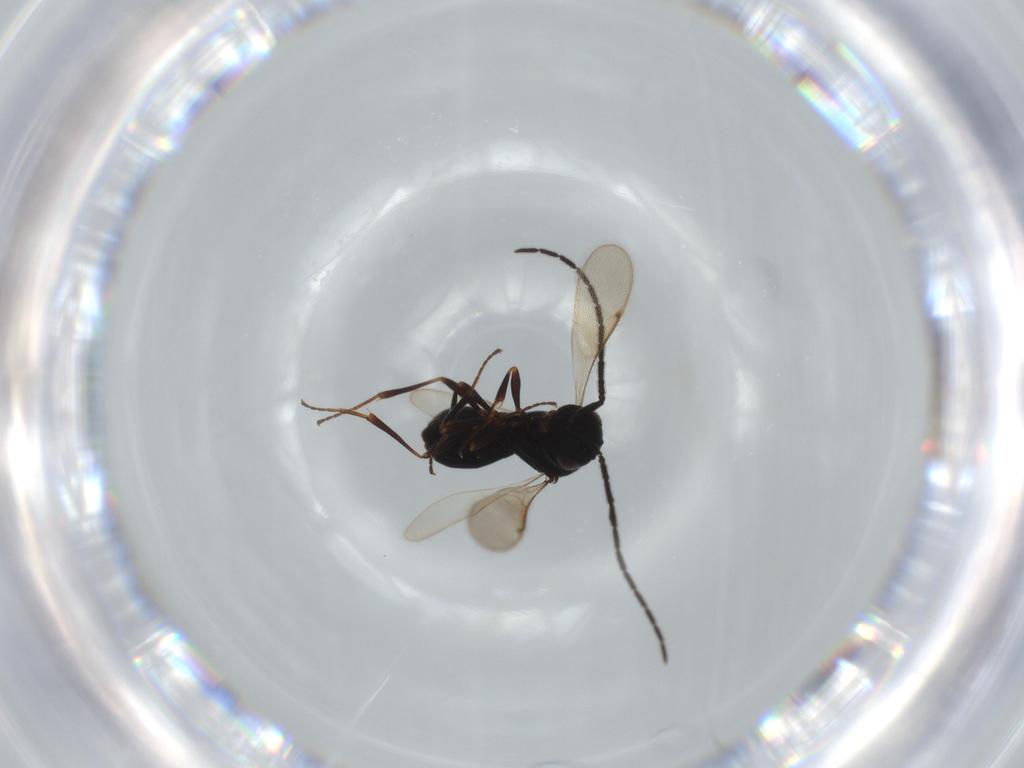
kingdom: Animalia
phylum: Arthropoda
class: Insecta
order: Hymenoptera
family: Scelionidae
